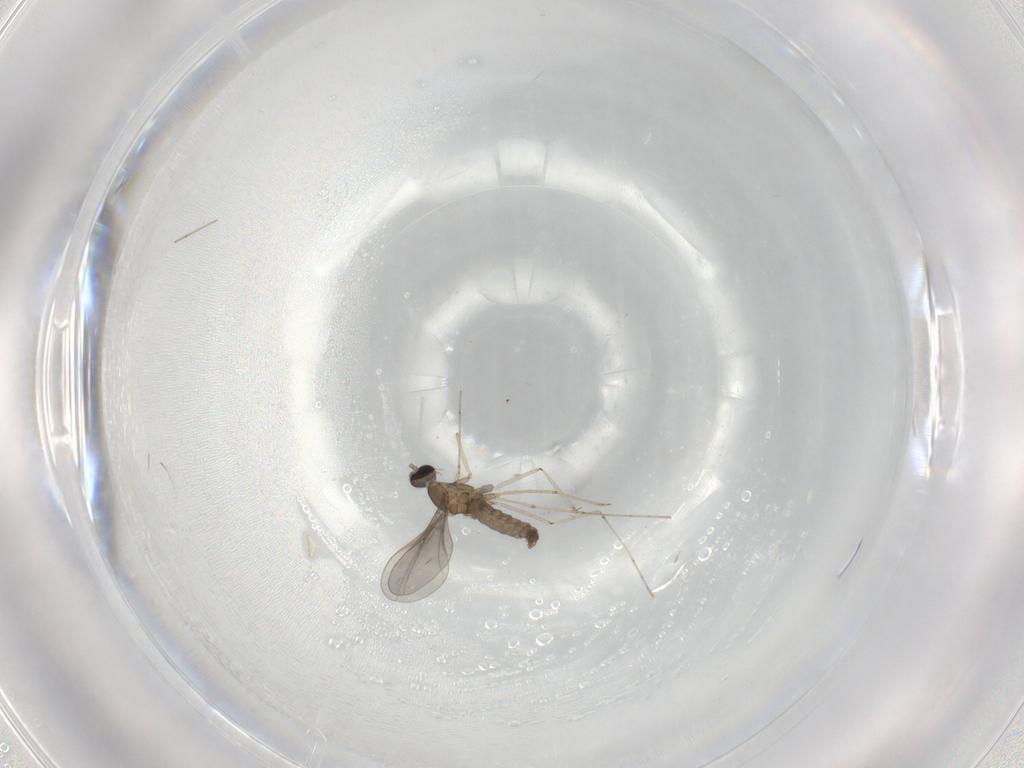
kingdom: Animalia
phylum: Arthropoda
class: Insecta
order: Diptera
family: Cecidomyiidae
